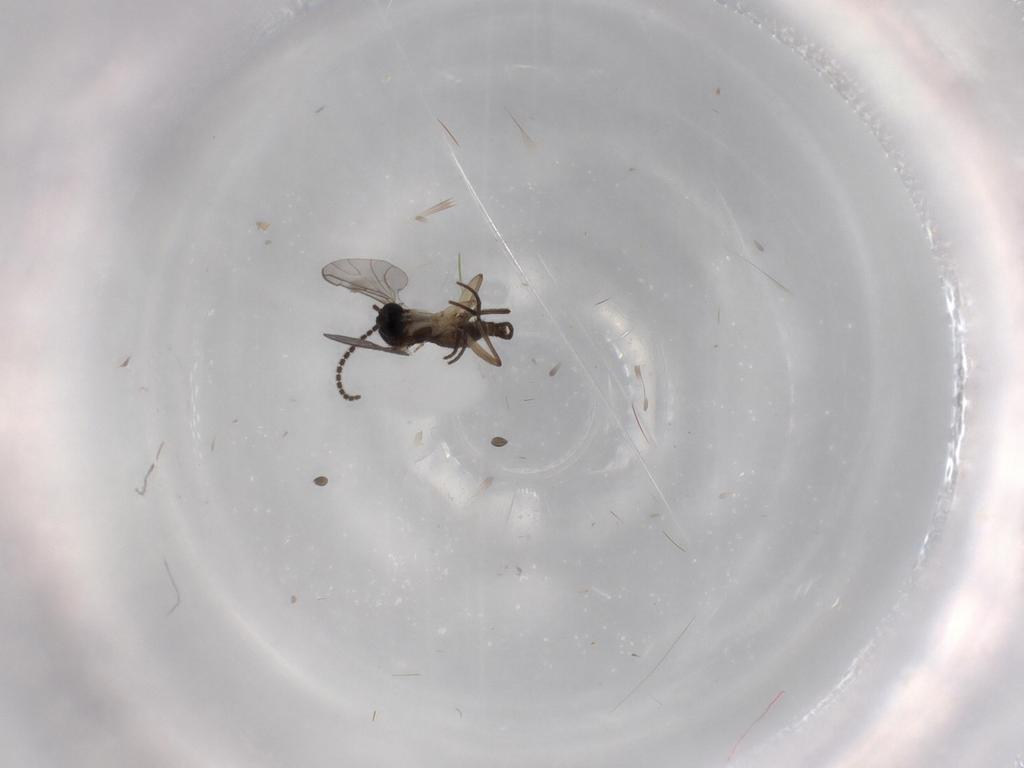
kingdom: Animalia
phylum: Arthropoda
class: Insecta
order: Diptera
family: Sciaridae
